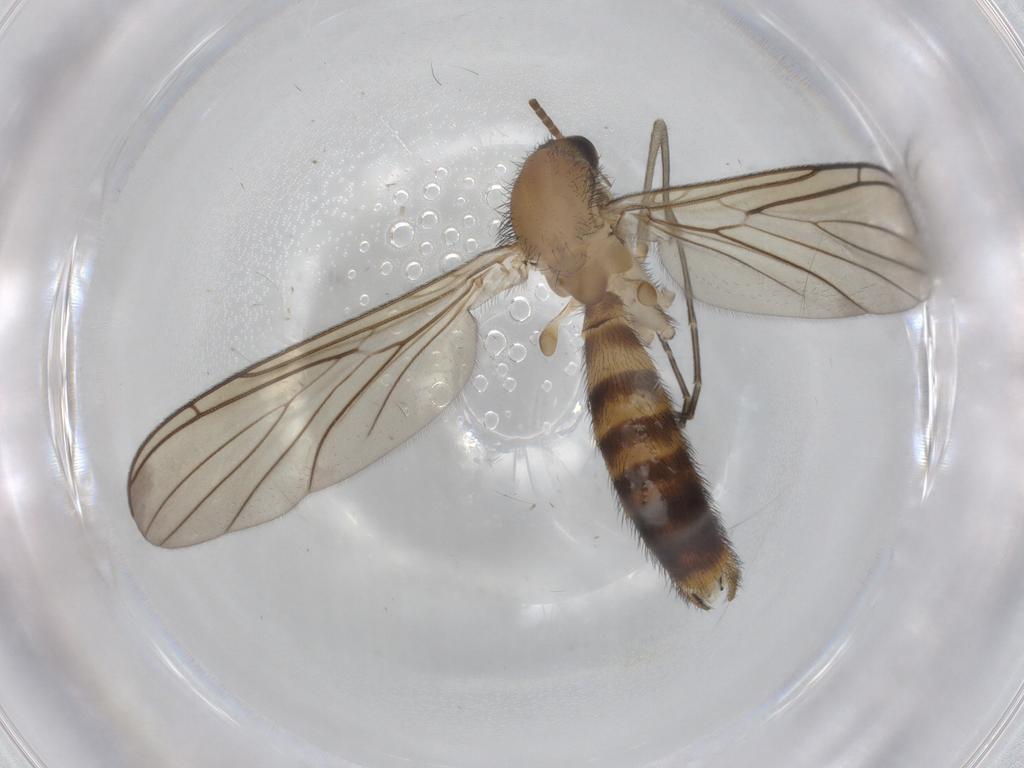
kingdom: Animalia
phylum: Arthropoda
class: Insecta
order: Diptera
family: Keroplatidae
